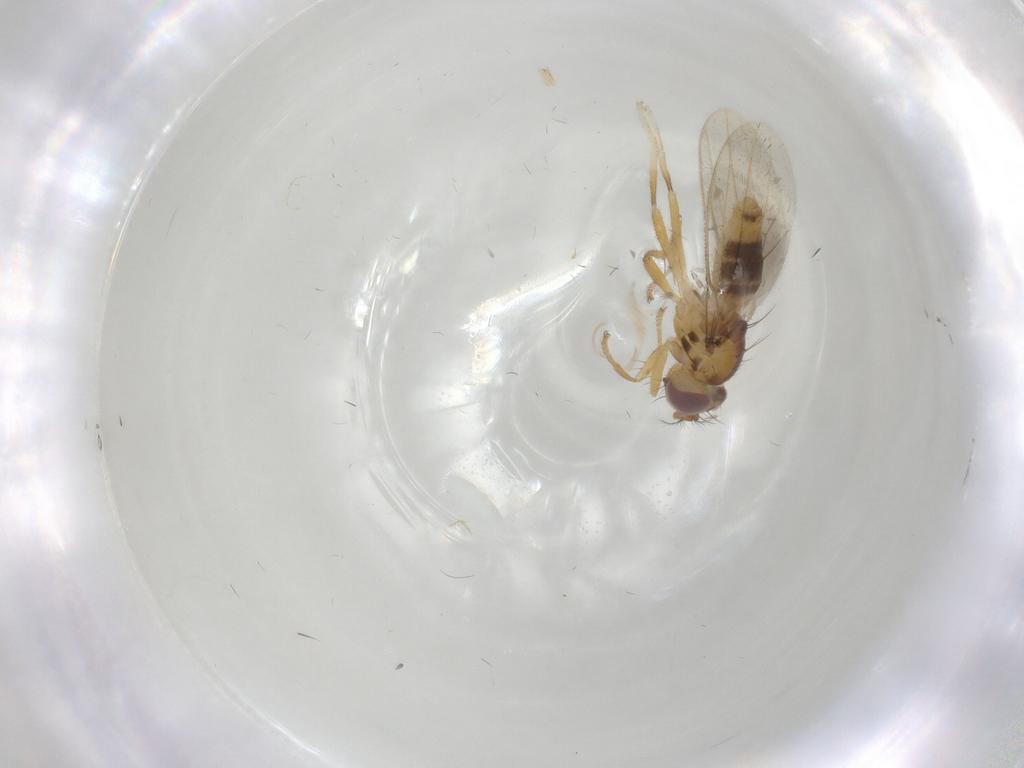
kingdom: Animalia
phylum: Arthropoda
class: Insecta
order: Diptera
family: Periscelididae
